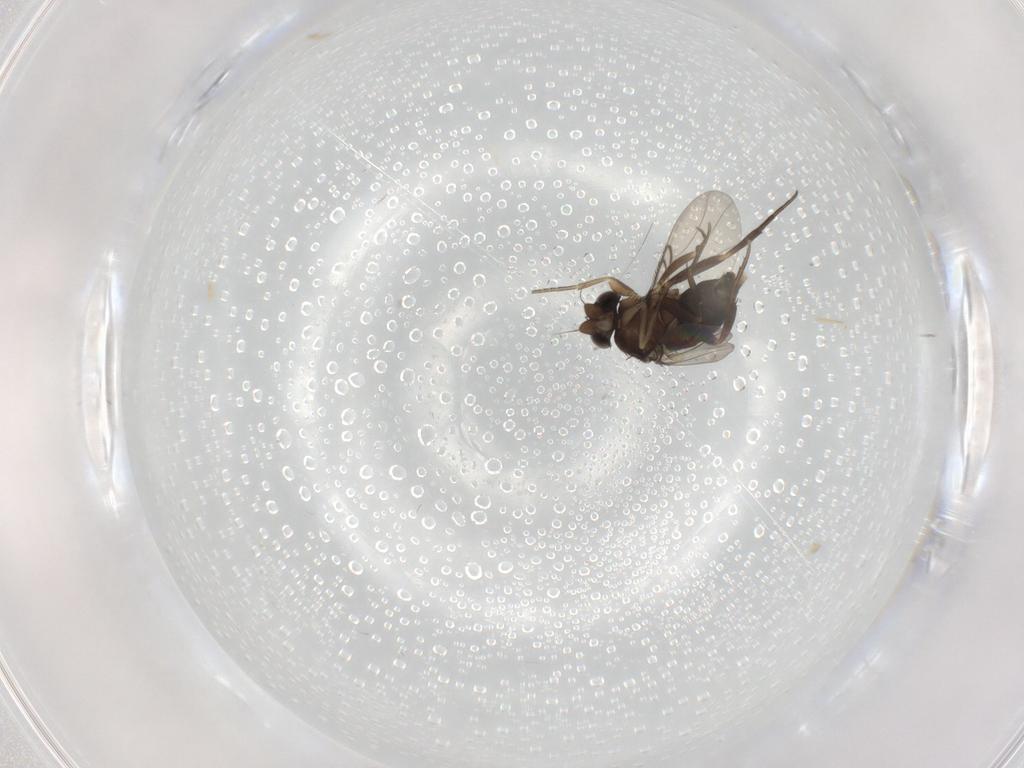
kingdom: Animalia
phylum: Arthropoda
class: Insecta
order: Diptera
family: Phoridae
